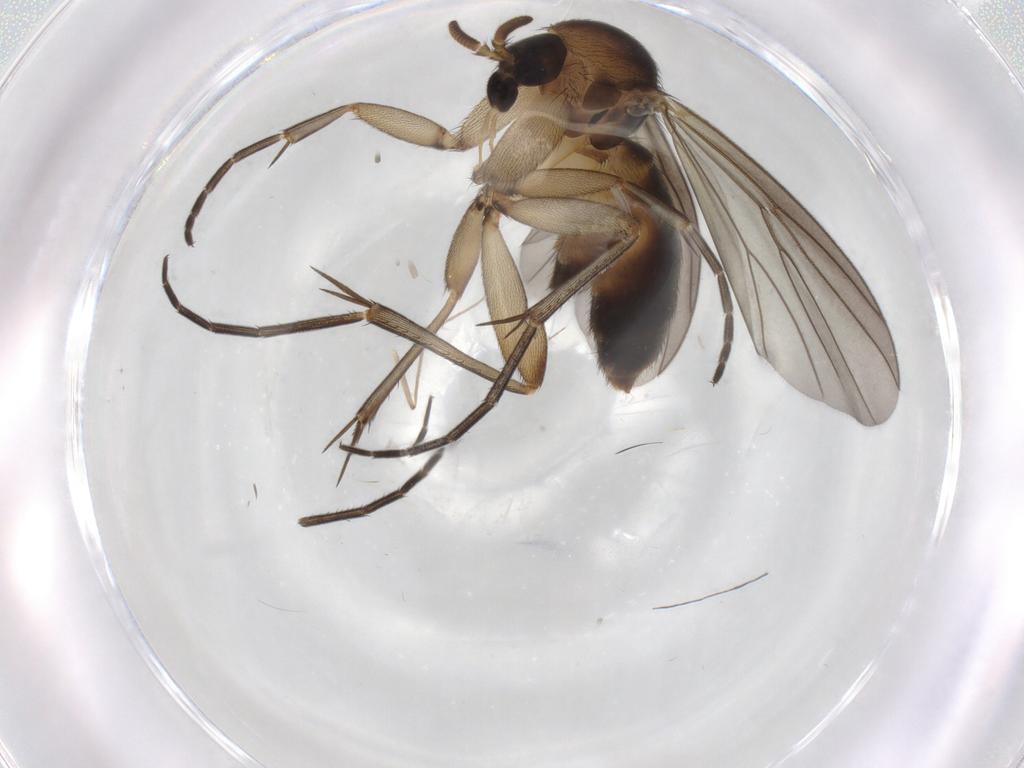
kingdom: Animalia
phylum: Arthropoda
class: Insecta
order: Diptera
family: Mycetophilidae
